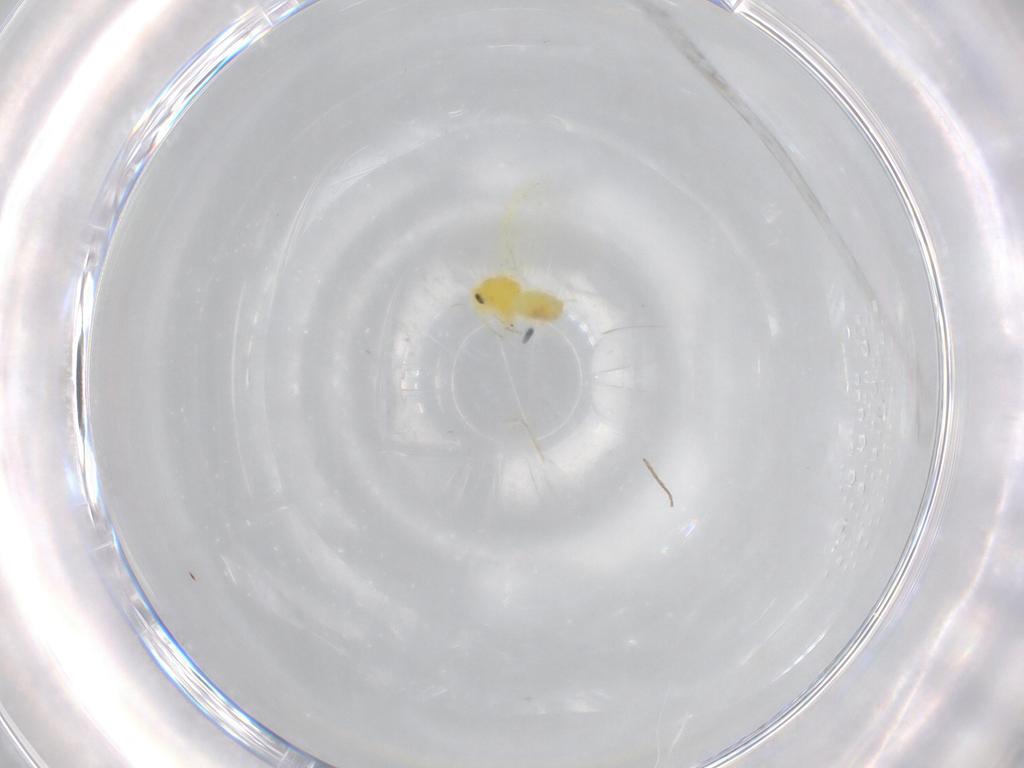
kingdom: Animalia
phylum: Arthropoda
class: Insecta
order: Hemiptera
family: Aleyrodidae
